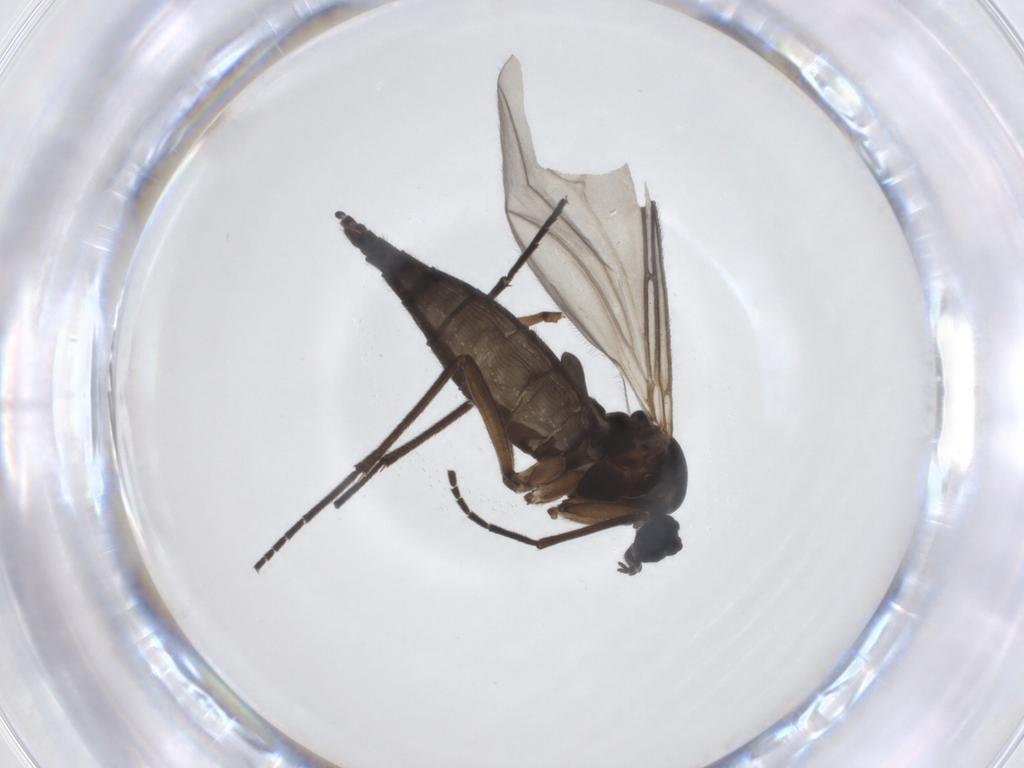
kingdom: Animalia
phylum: Arthropoda
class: Insecta
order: Diptera
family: Sciaridae
